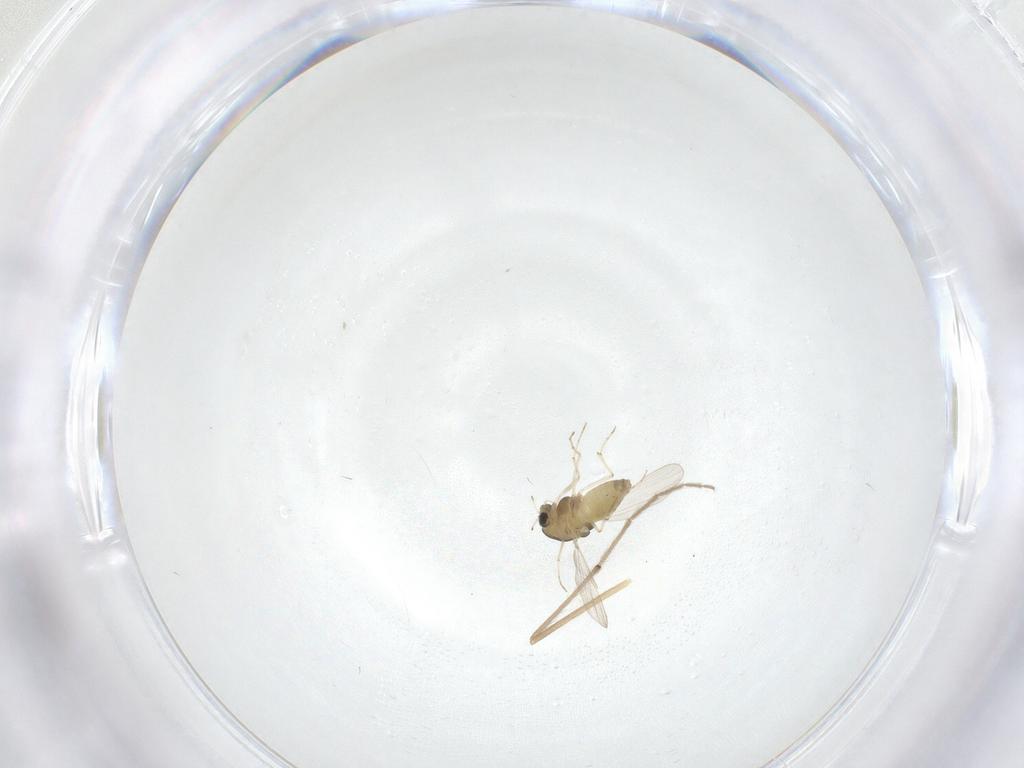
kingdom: Animalia
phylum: Arthropoda
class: Insecta
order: Diptera
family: Chironomidae
